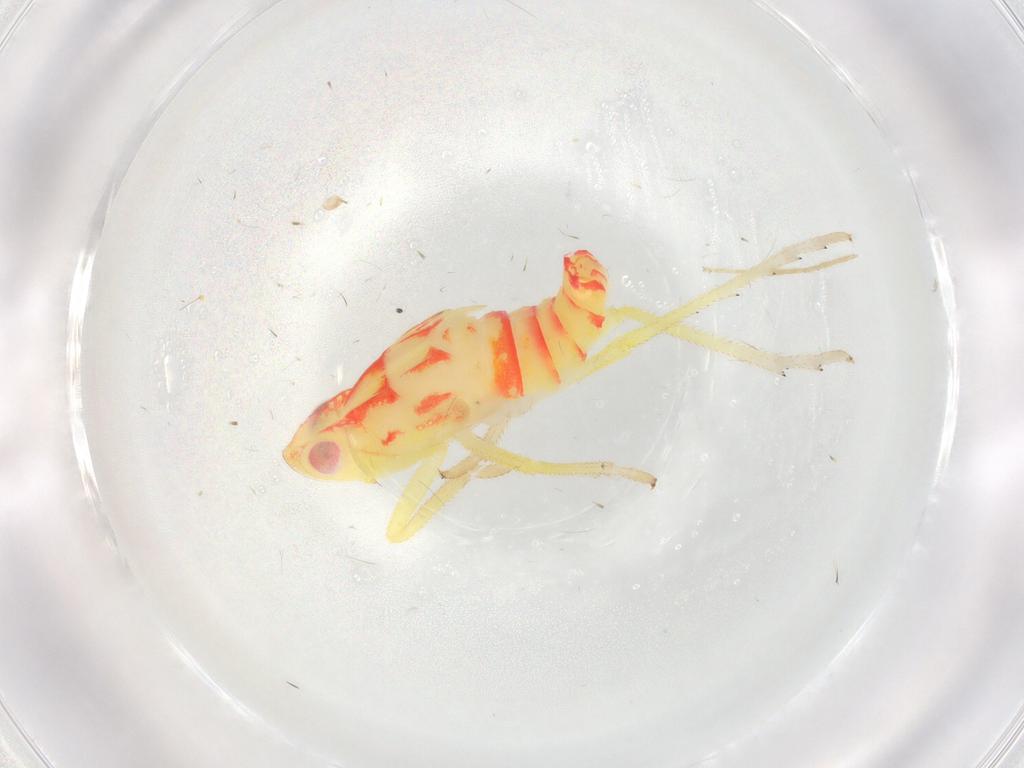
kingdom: Animalia
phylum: Arthropoda
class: Insecta
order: Hemiptera
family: Tropiduchidae
